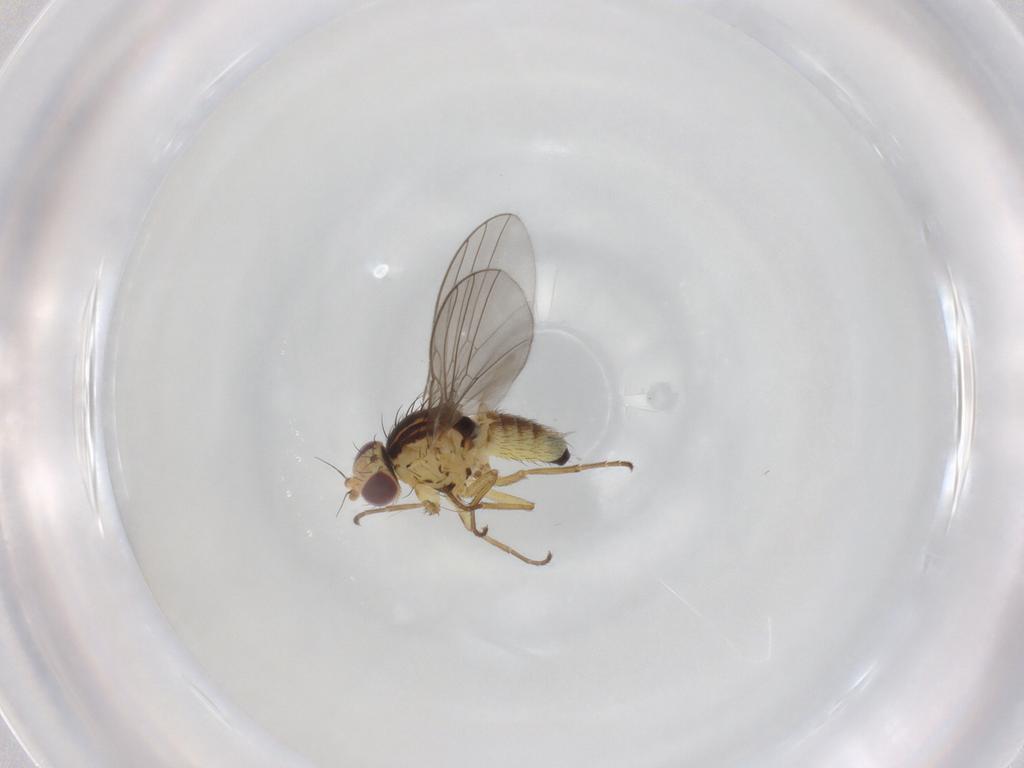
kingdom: Animalia
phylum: Arthropoda
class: Insecta
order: Diptera
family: Agromyzidae
